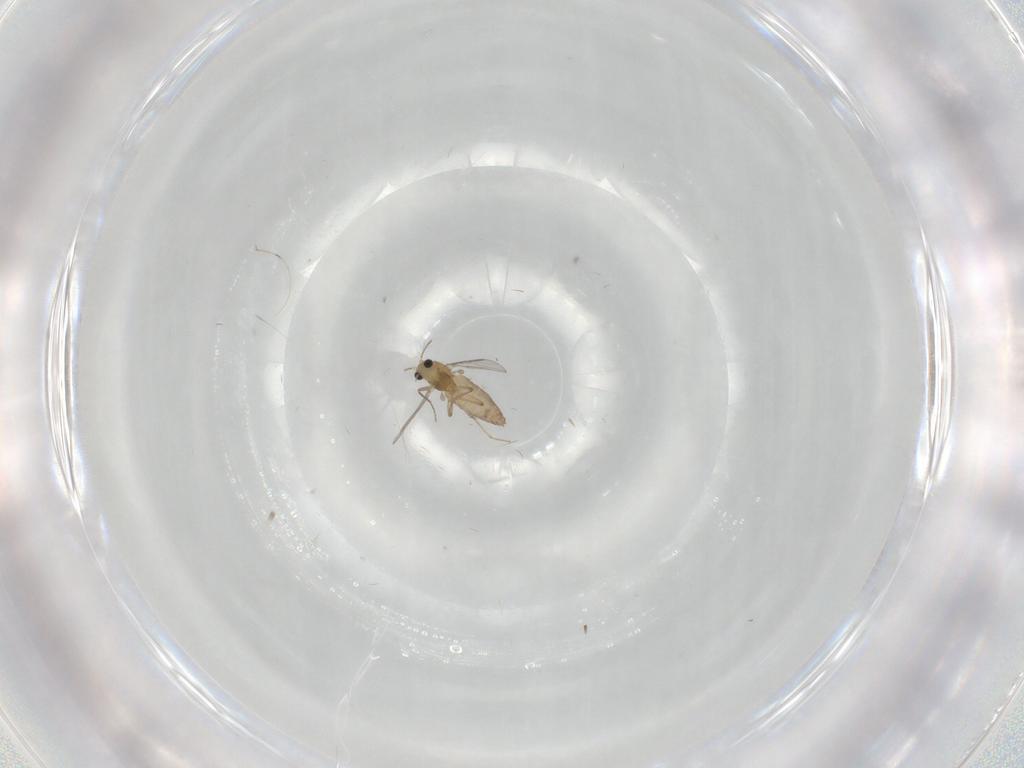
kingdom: Animalia
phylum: Arthropoda
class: Insecta
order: Diptera
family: Chironomidae
